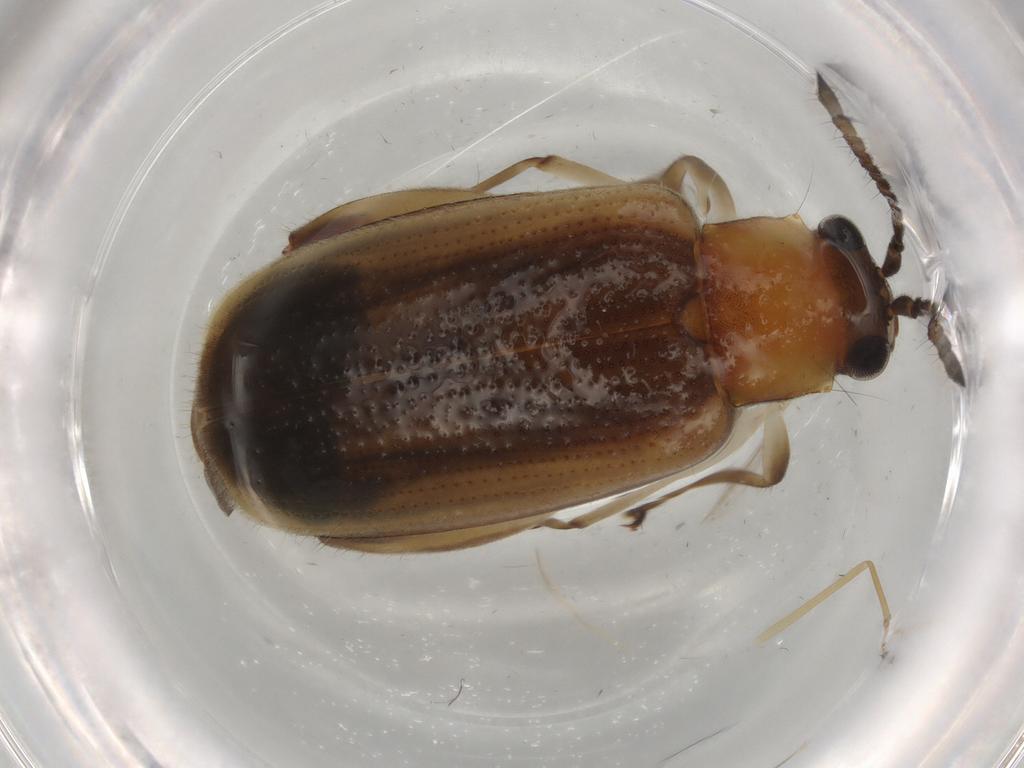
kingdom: Animalia
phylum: Arthropoda
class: Insecta
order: Coleoptera
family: Chrysomelidae
